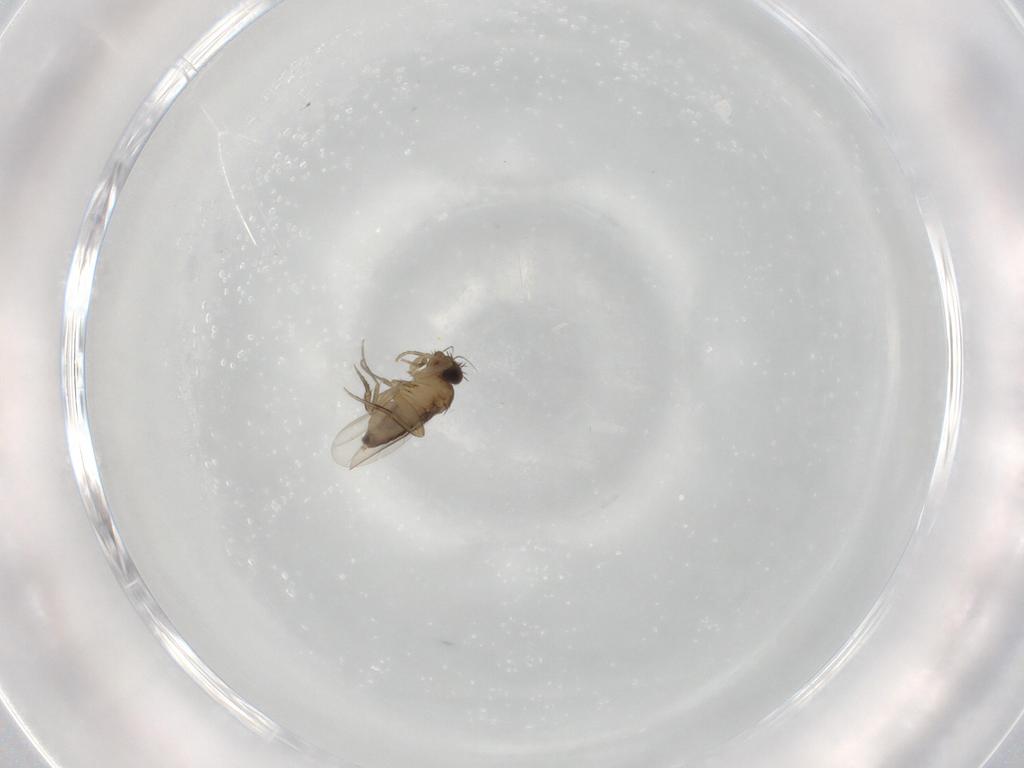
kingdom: Animalia
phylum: Arthropoda
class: Insecta
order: Diptera
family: Phoridae
